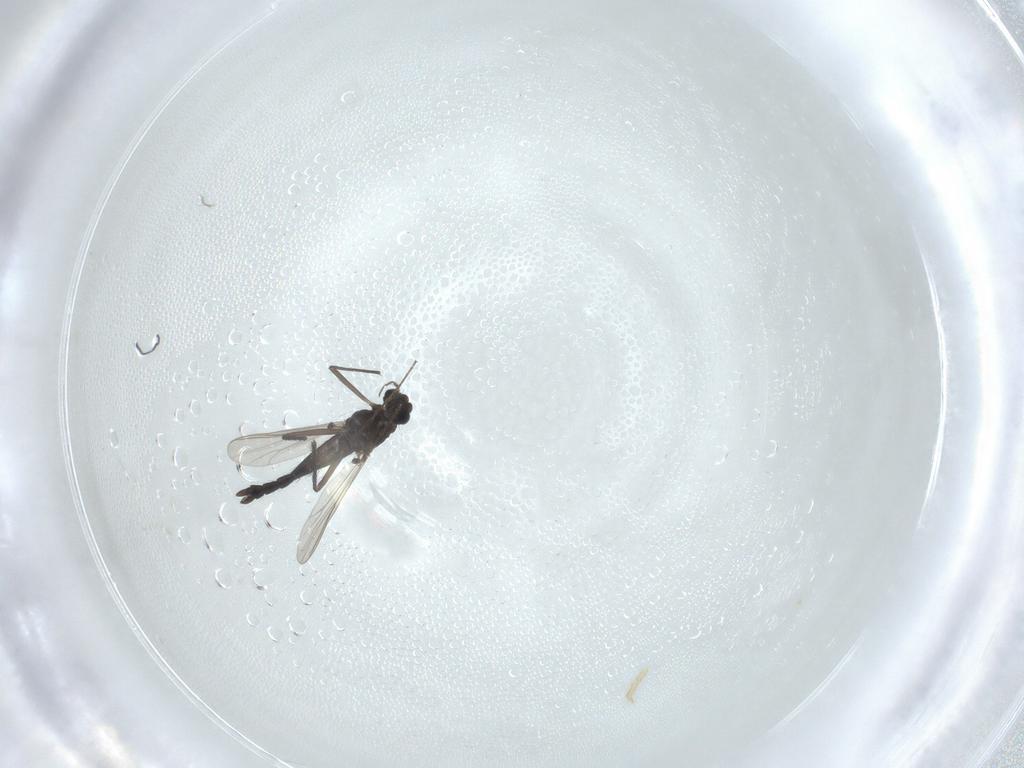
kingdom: Animalia
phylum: Arthropoda
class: Insecta
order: Diptera
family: Chironomidae
